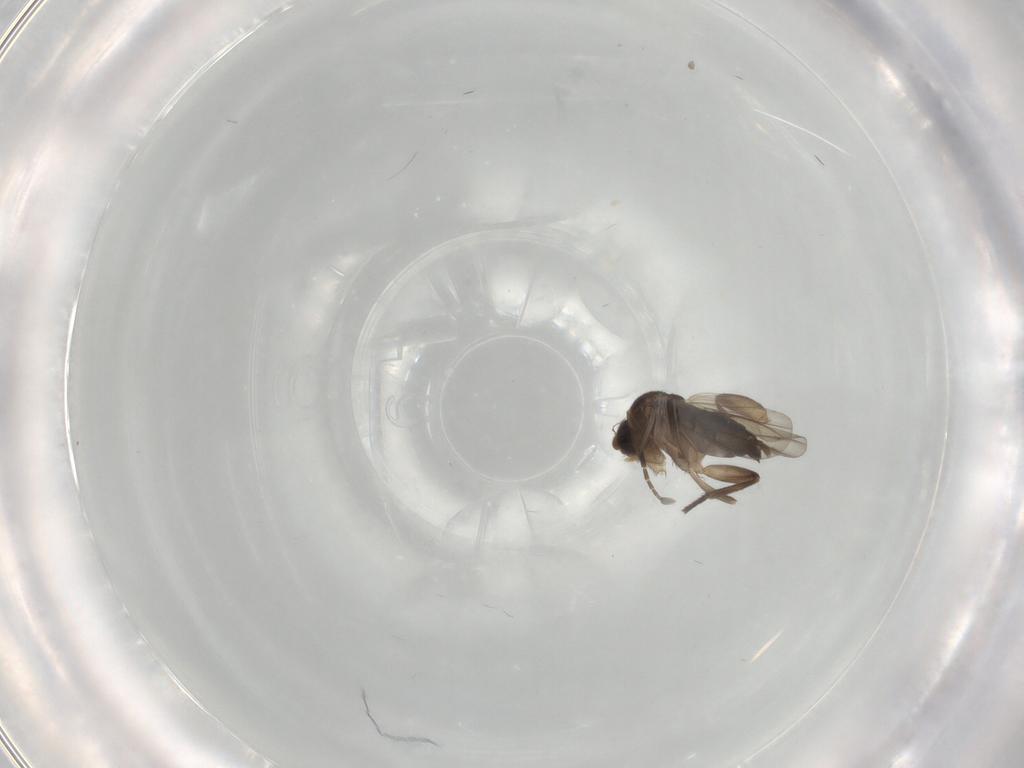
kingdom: Animalia
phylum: Arthropoda
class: Insecta
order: Diptera
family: Phoridae
